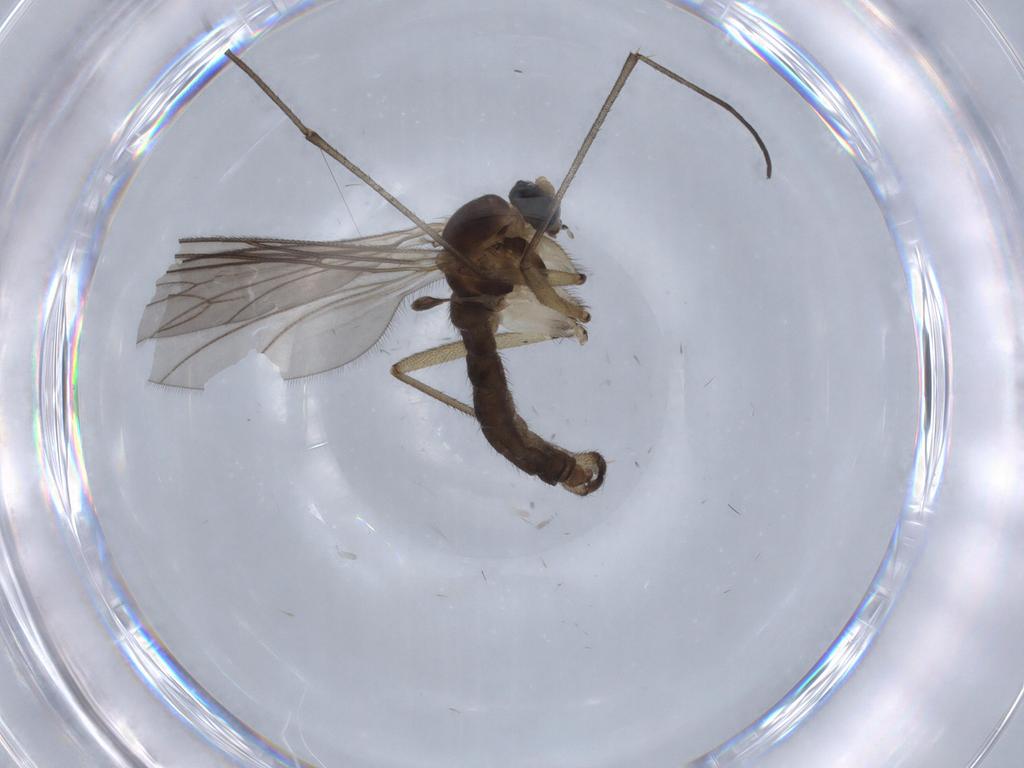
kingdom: Animalia
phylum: Arthropoda
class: Insecta
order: Diptera
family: Sciaridae
